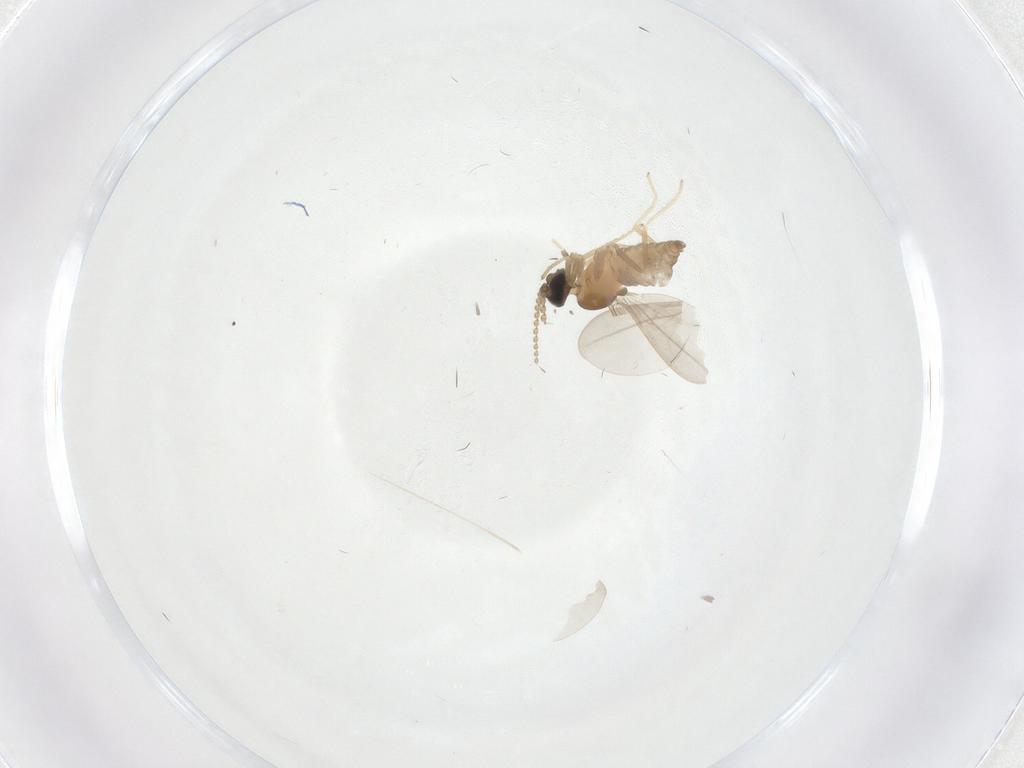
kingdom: Animalia
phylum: Arthropoda
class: Insecta
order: Diptera
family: Cecidomyiidae
